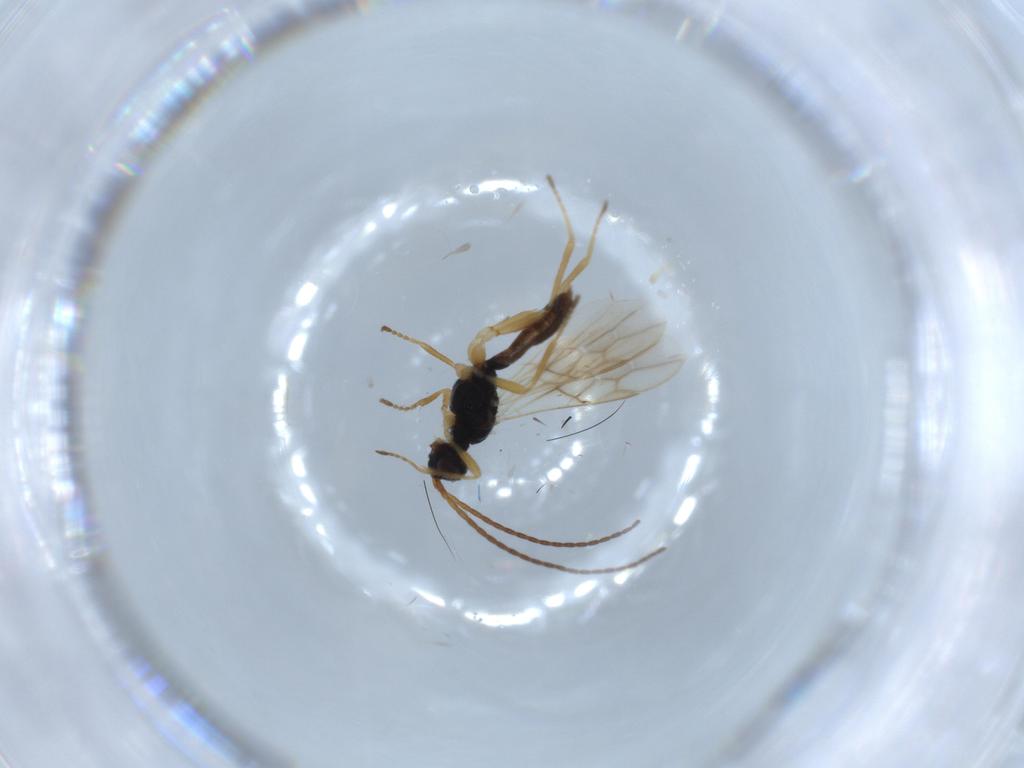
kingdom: Animalia
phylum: Arthropoda
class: Insecta
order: Hymenoptera
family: Braconidae
